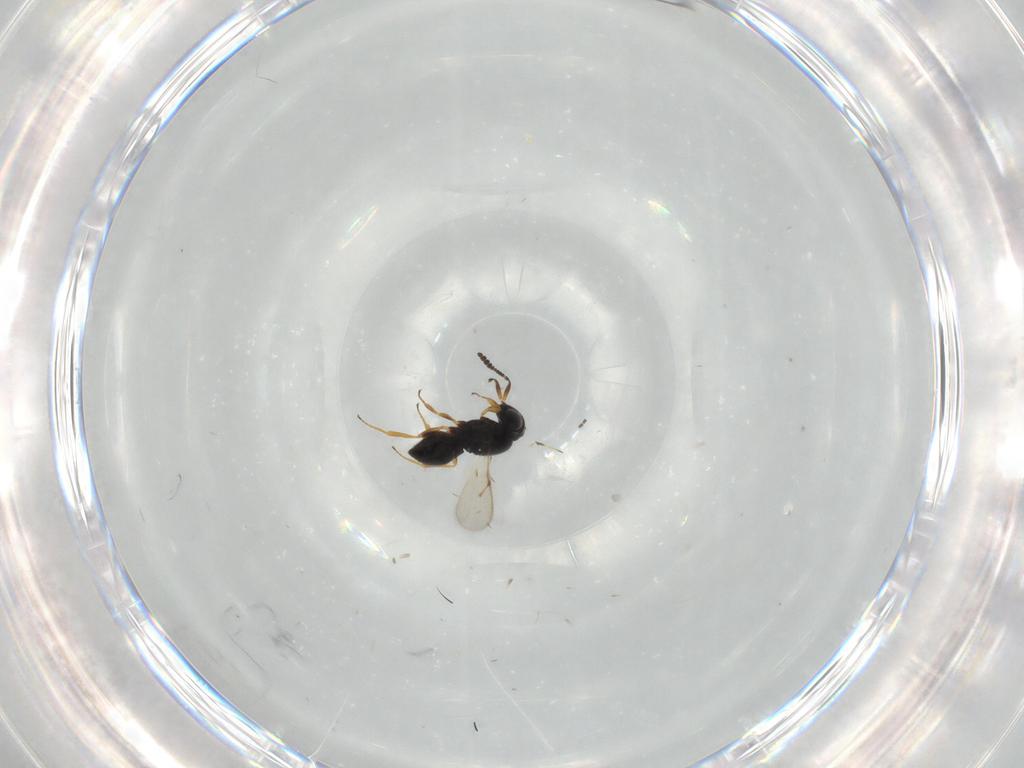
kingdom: Animalia
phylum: Arthropoda
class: Insecta
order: Hymenoptera
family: Scelionidae
